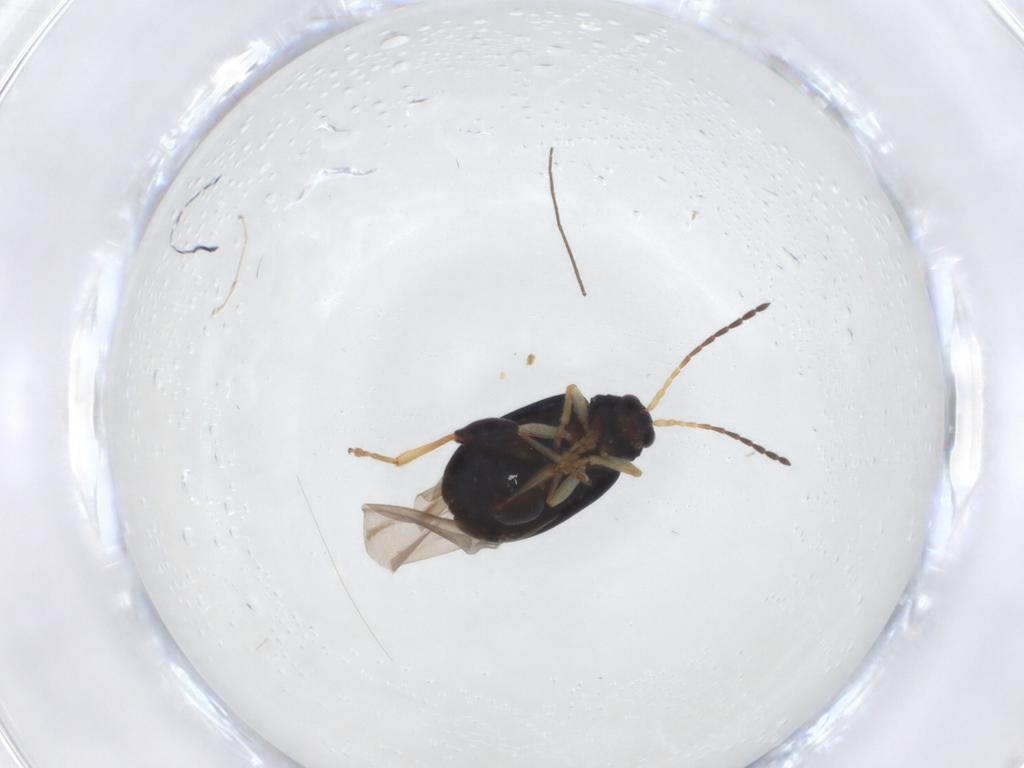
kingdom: Animalia
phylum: Arthropoda
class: Insecta
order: Coleoptera
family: Chrysomelidae
